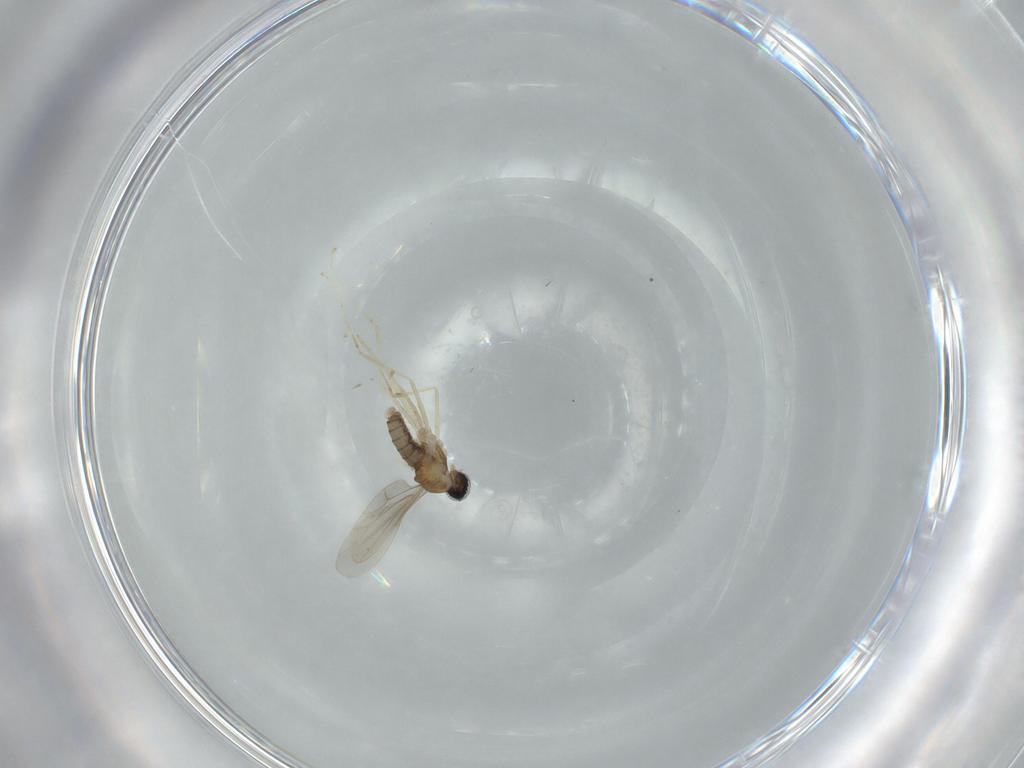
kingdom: Animalia
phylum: Arthropoda
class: Insecta
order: Diptera
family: Cecidomyiidae
